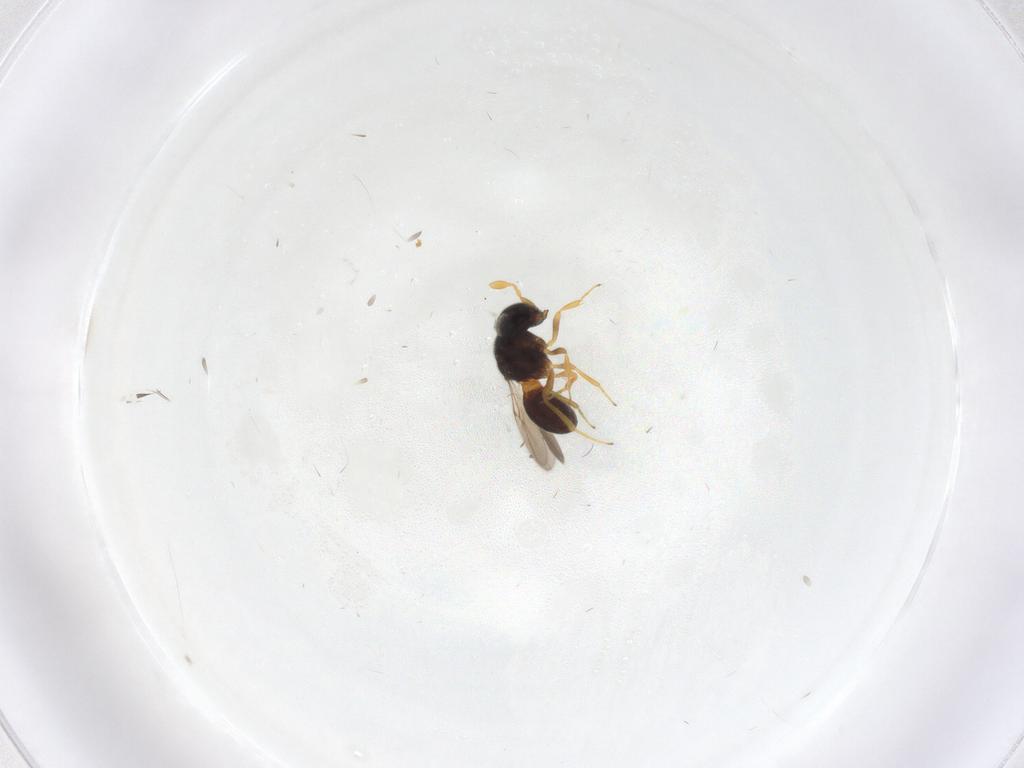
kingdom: Animalia
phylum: Arthropoda
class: Insecta
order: Hymenoptera
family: Scelionidae
